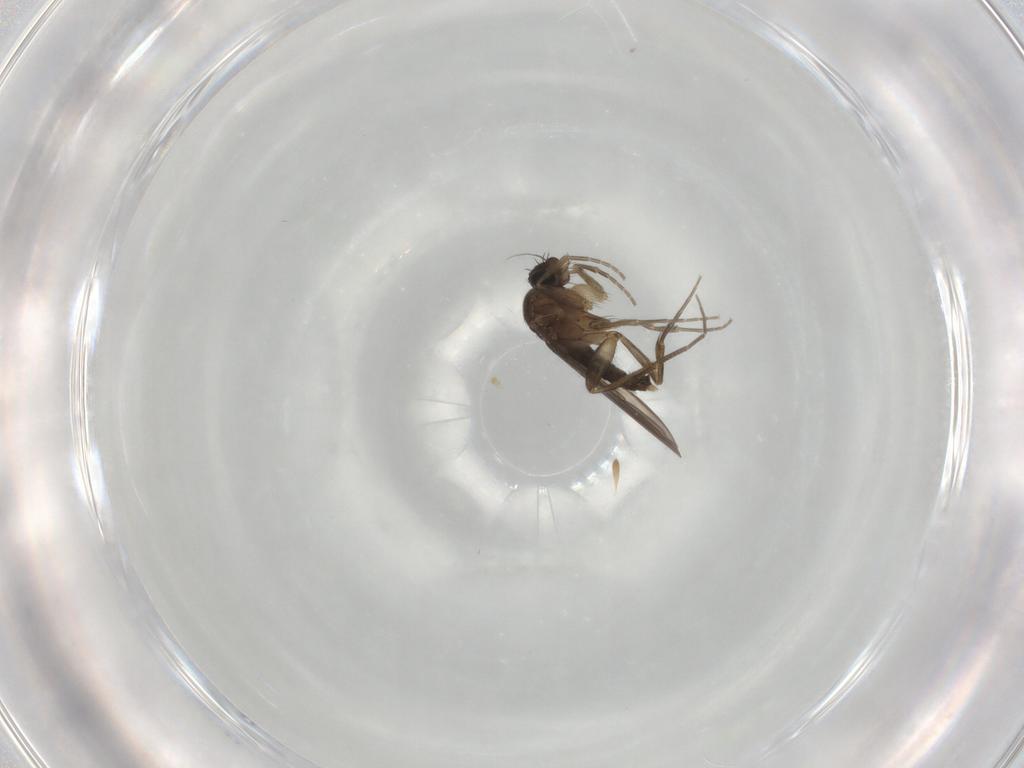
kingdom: Animalia
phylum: Arthropoda
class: Insecta
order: Diptera
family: Phoridae
